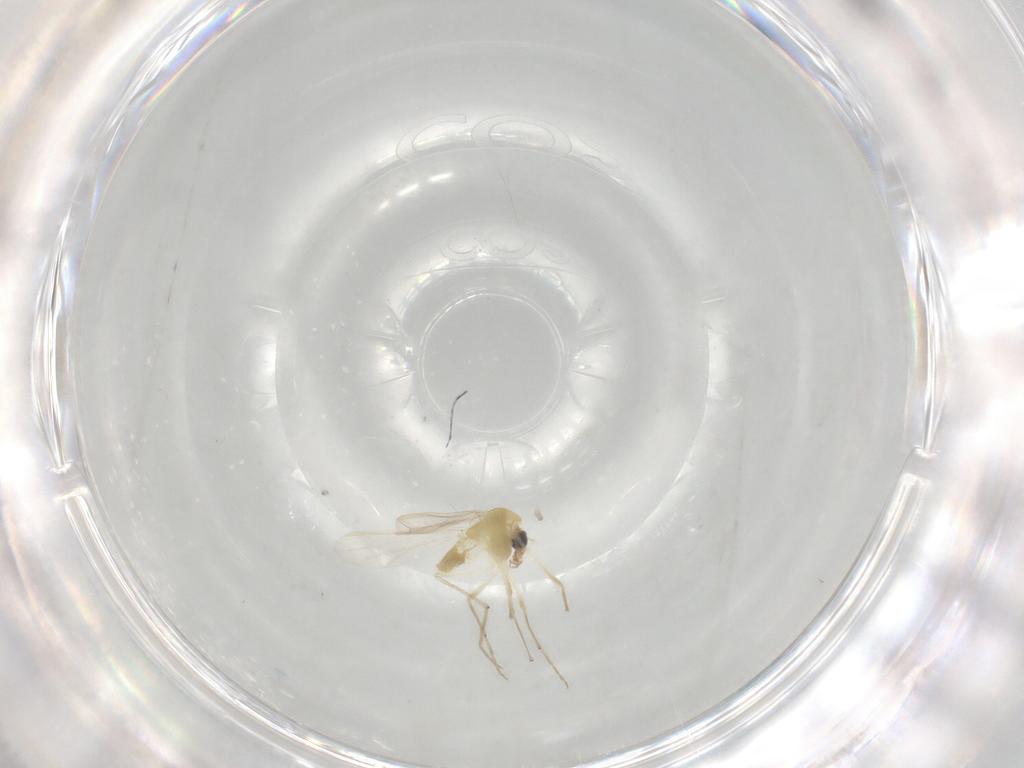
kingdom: Animalia
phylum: Arthropoda
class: Insecta
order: Diptera
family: Chironomidae
